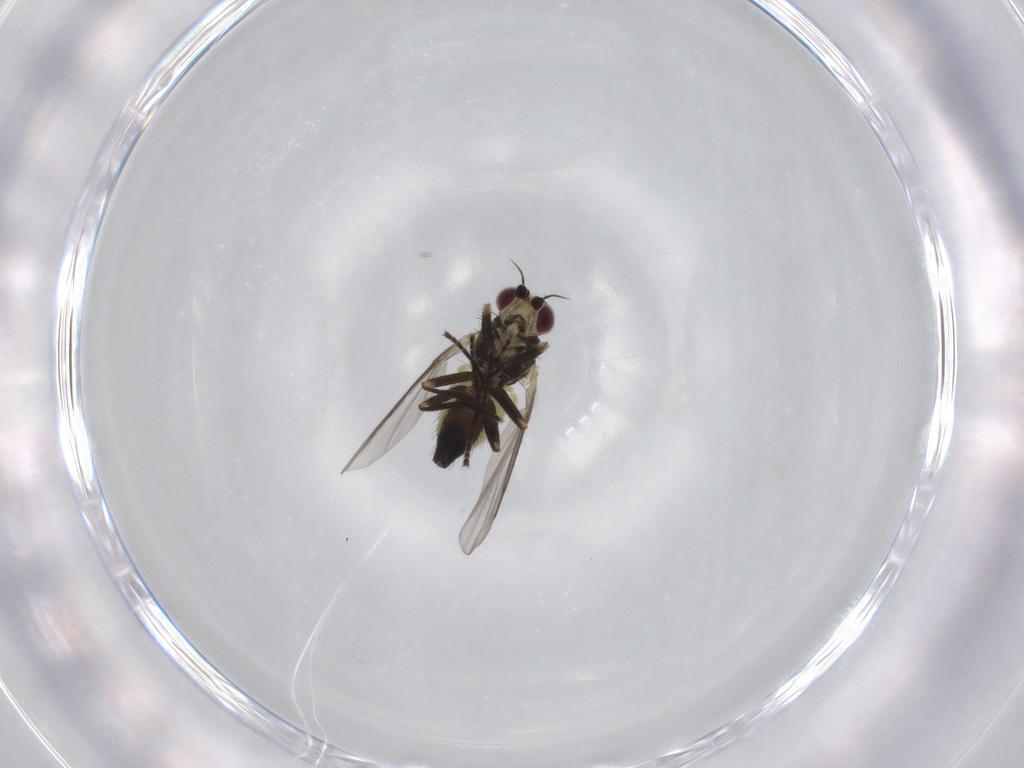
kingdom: Animalia
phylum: Arthropoda
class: Insecta
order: Diptera
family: Agromyzidae
